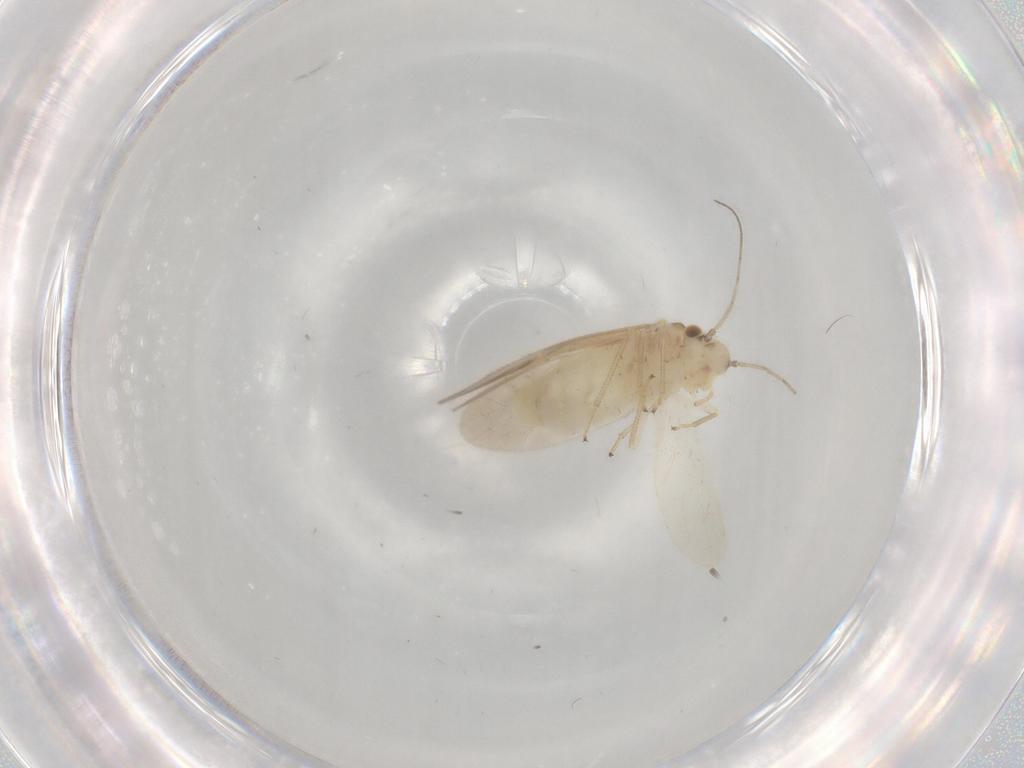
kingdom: Animalia
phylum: Arthropoda
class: Insecta
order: Psocodea
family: Caeciliusidae
